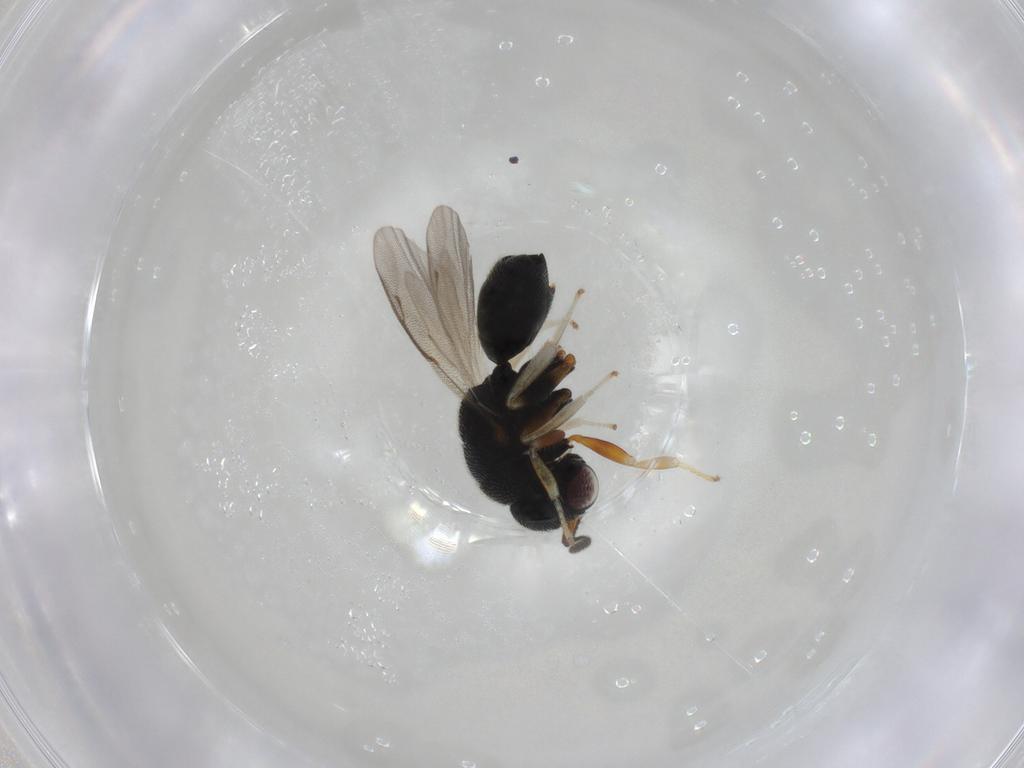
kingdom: Animalia
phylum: Arthropoda
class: Insecta
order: Hymenoptera
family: Eurytomidae
